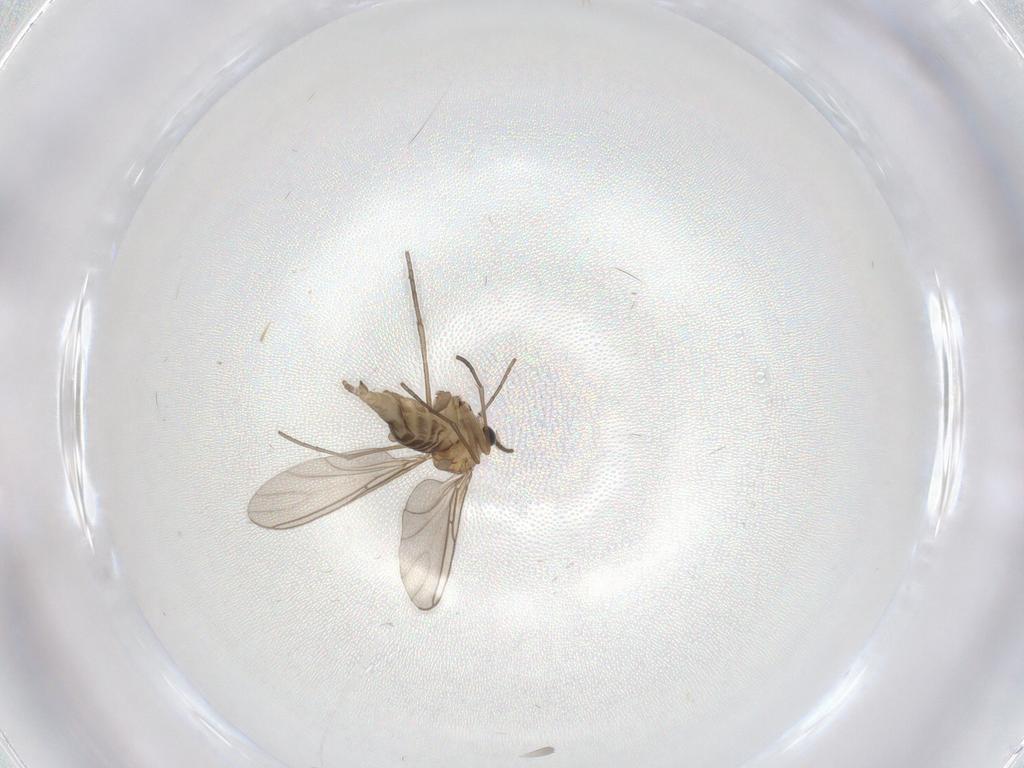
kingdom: Animalia
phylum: Arthropoda
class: Insecta
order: Diptera
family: Sciaridae
